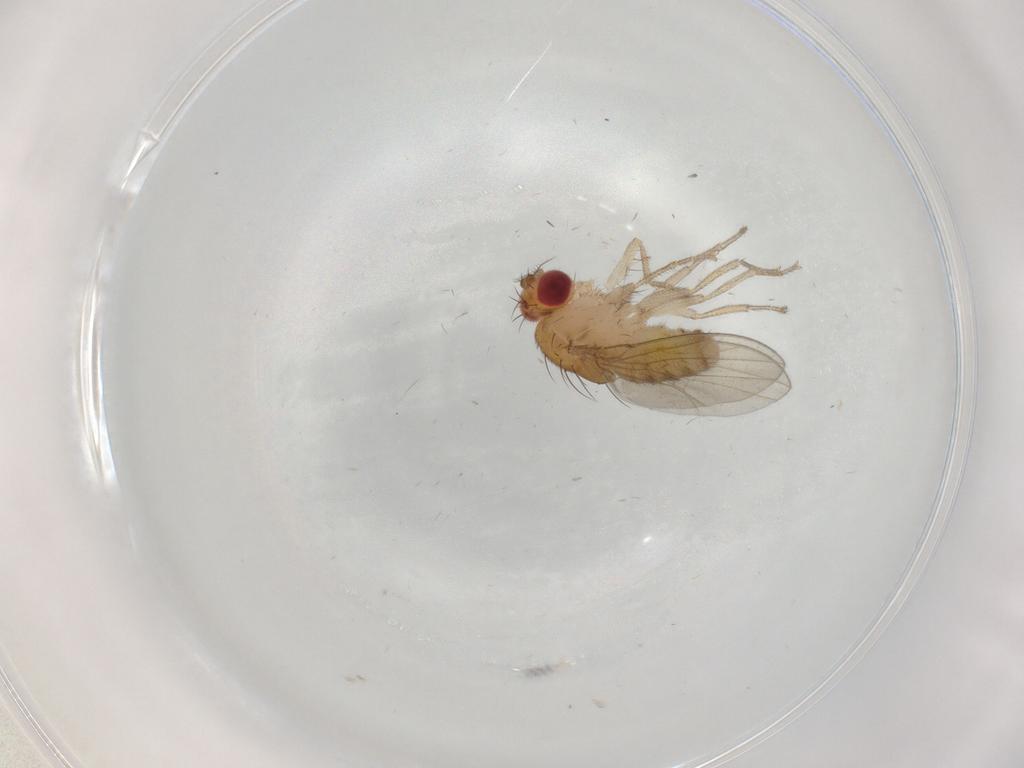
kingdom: Animalia
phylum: Arthropoda
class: Insecta
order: Diptera
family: Drosophilidae
